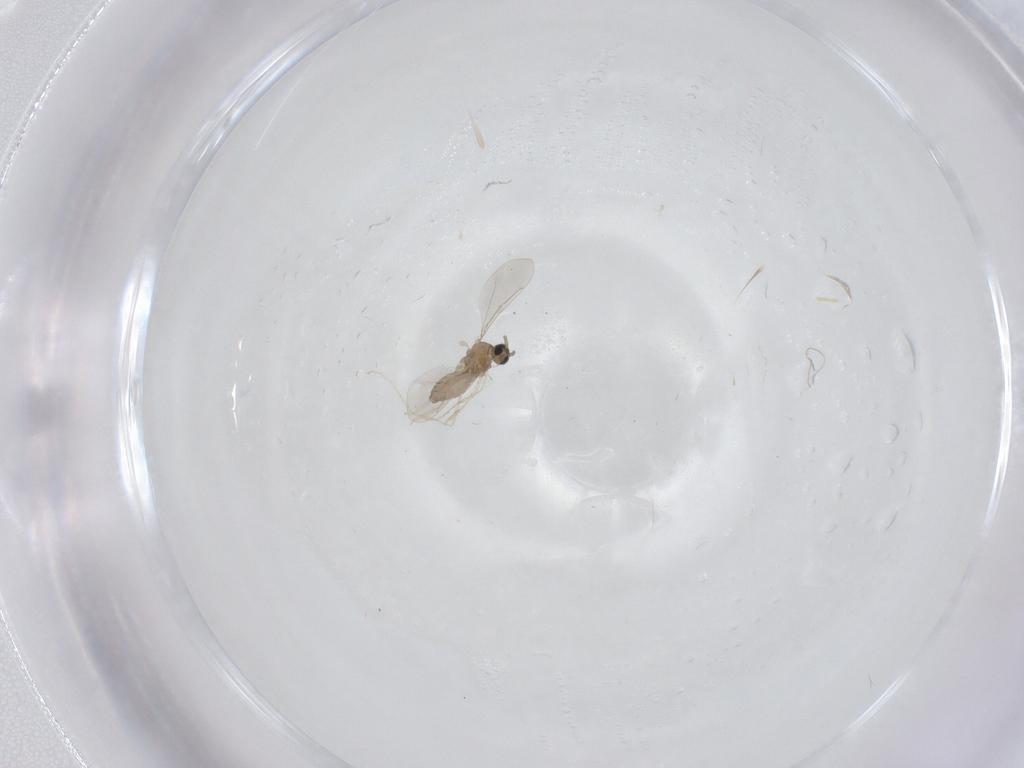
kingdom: Animalia
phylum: Arthropoda
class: Insecta
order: Diptera
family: Cecidomyiidae
